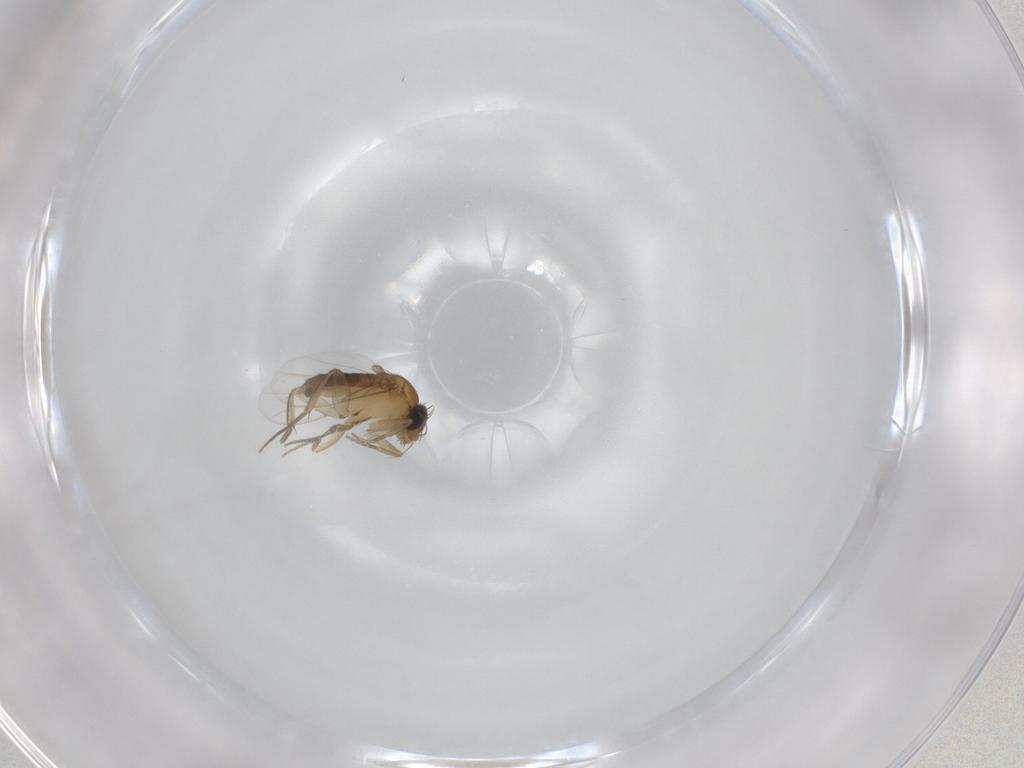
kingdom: Animalia
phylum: Arthropoda
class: Insecta
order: Diptera
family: Phoridae
